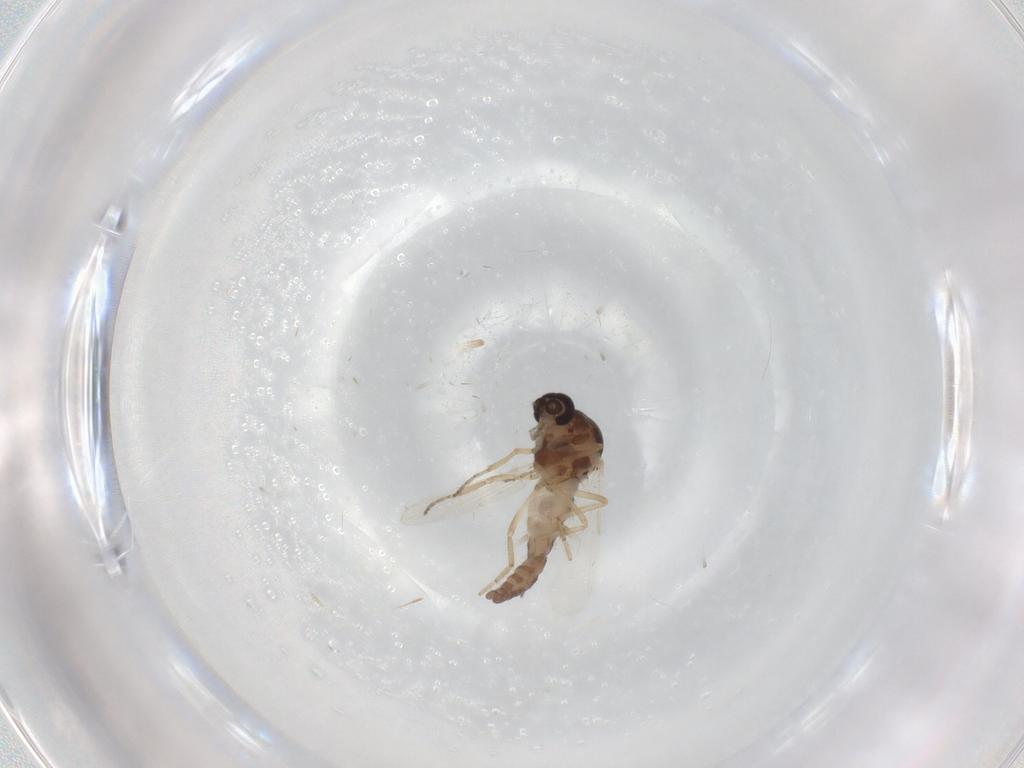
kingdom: Animalia
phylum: Arthropoda
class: Insecta
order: Diptera
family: Ceratopogonidae
